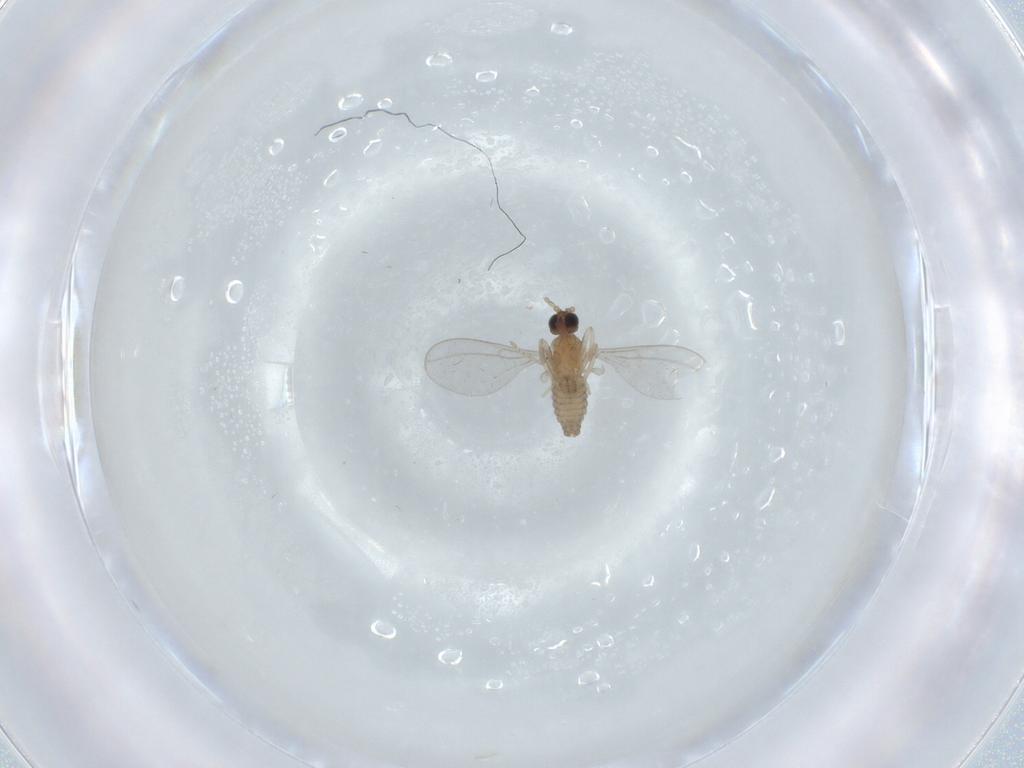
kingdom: Animalia
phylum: Arthropoda
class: Insecta
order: Diptera
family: Cecidomyiidae
